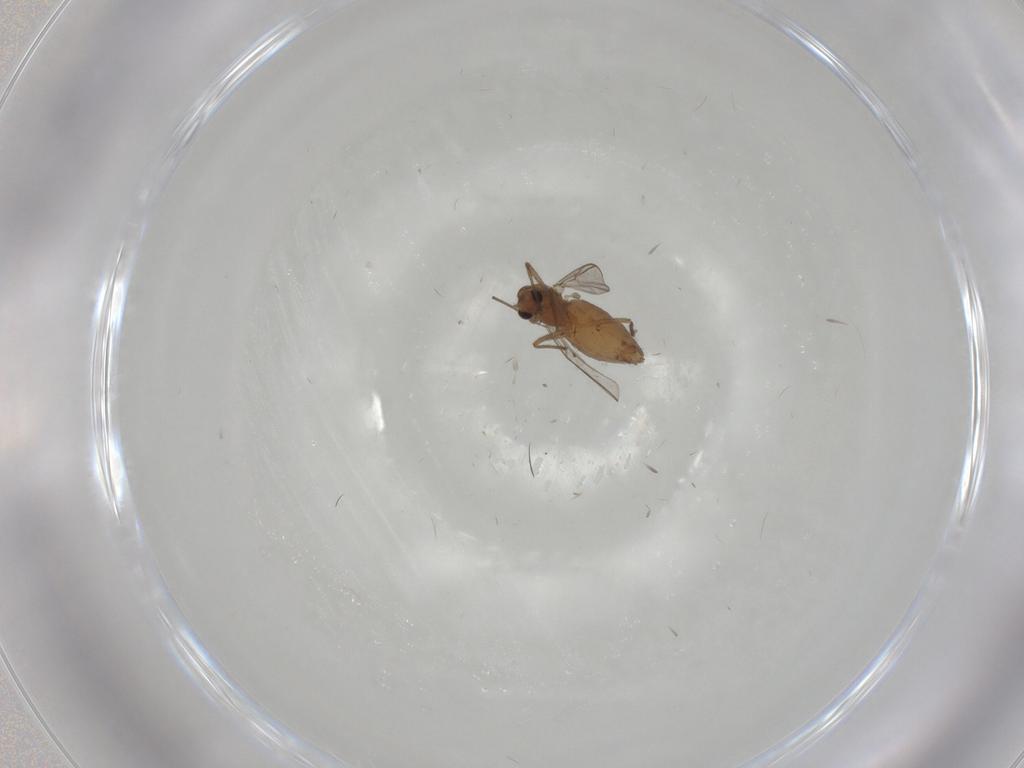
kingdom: Animalia
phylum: Arthropoda
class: Insecta
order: Diptera
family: Chironomidae
